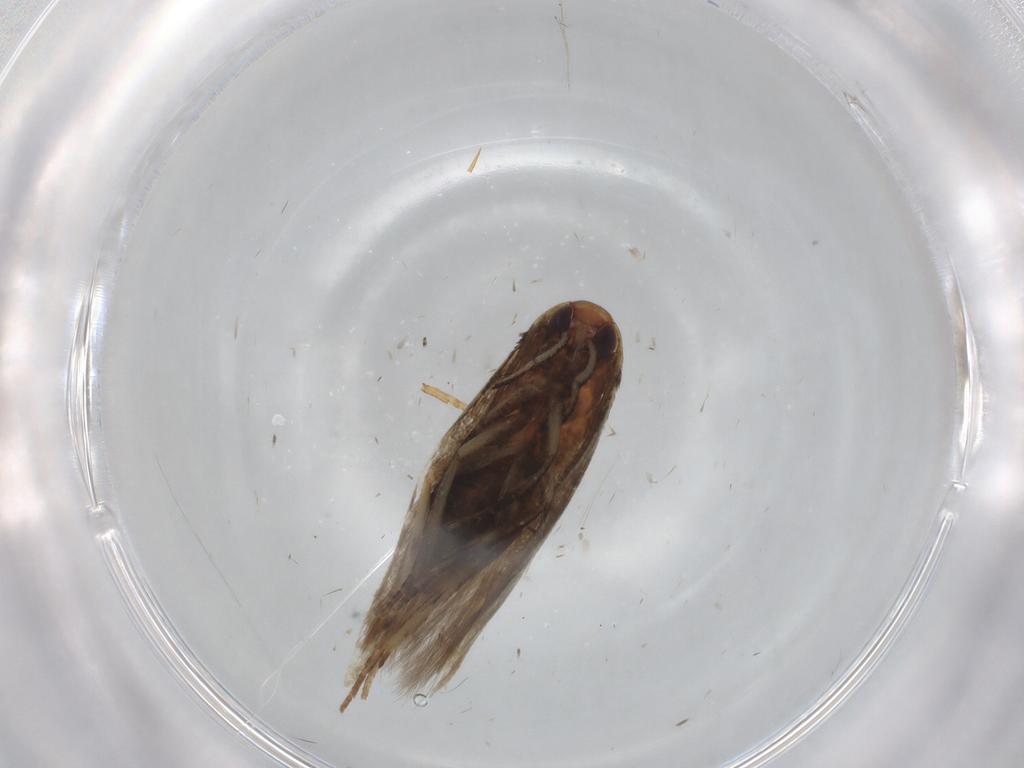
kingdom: Animalia
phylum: Arthropoda
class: Insecta
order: Lepidoptera
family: Cosmopterigidae
